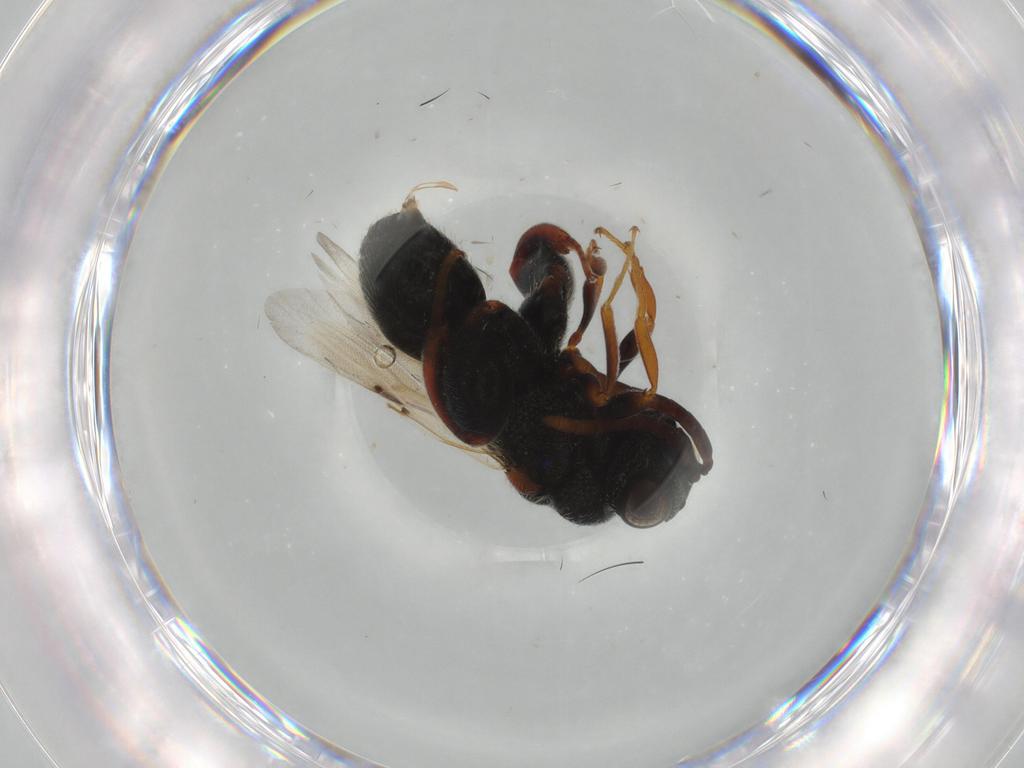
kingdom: Animalia
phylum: Arthropoda
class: Insecta
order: Hymenoptera
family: Chalcididae
